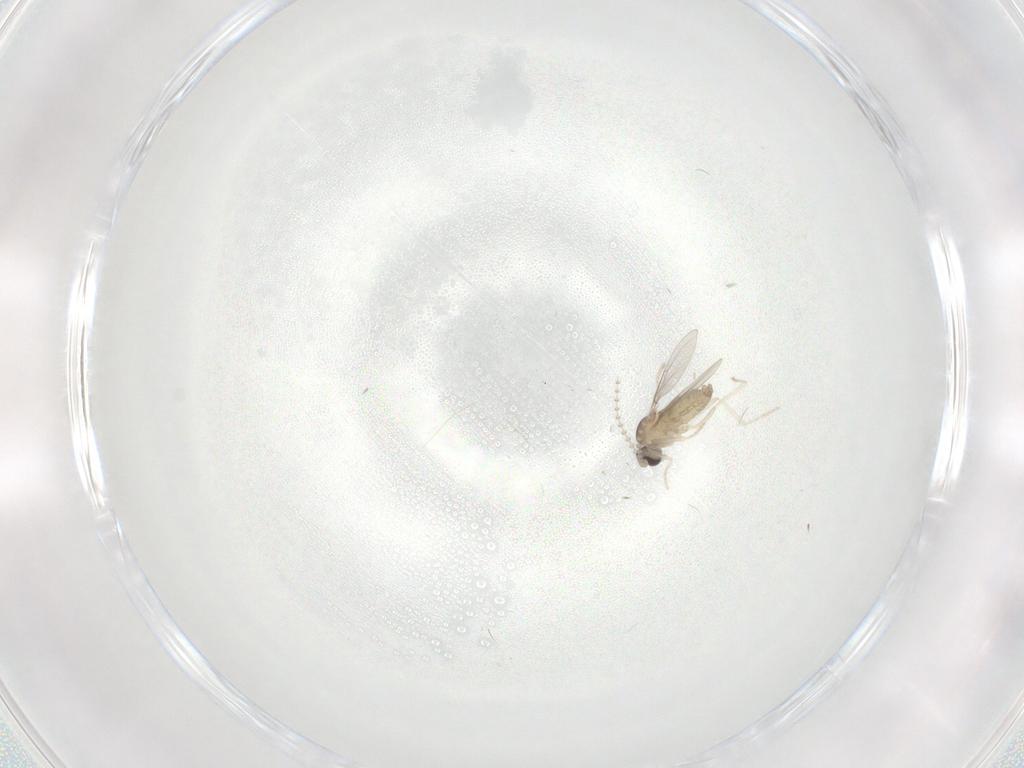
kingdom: Animalia
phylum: Arthropoda
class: Insecta
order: Diptera
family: Cecidomyiidae
